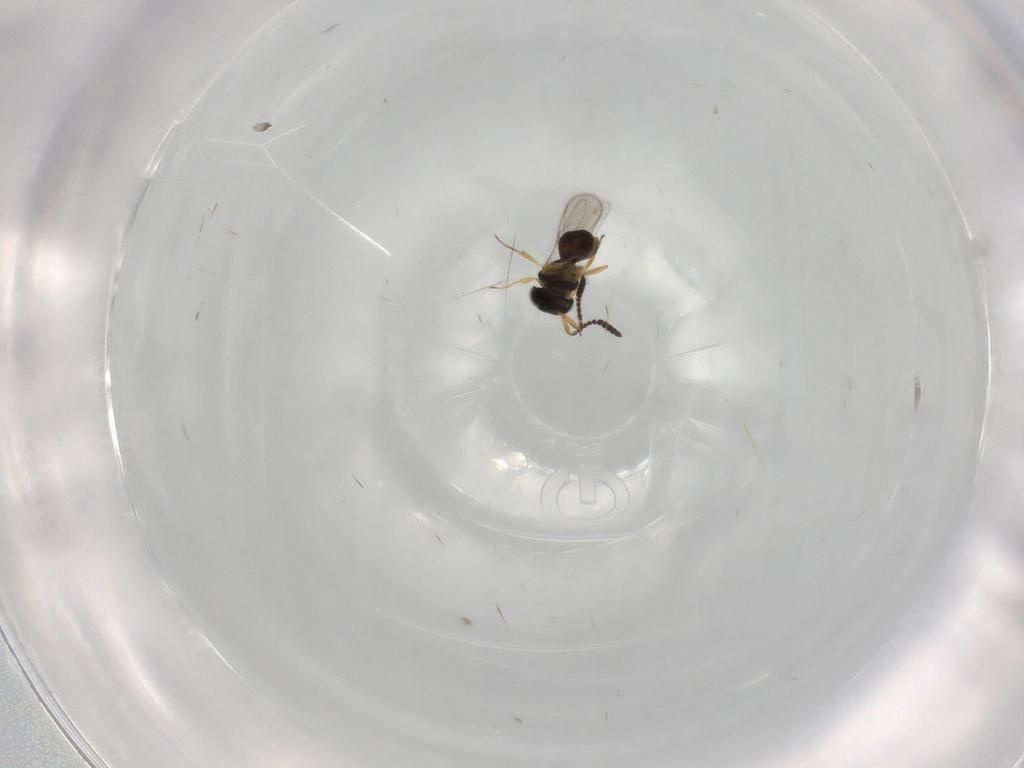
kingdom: Animalia
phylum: Arthropoda
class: Insecta
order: Hymenoptera
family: Scelionidae
